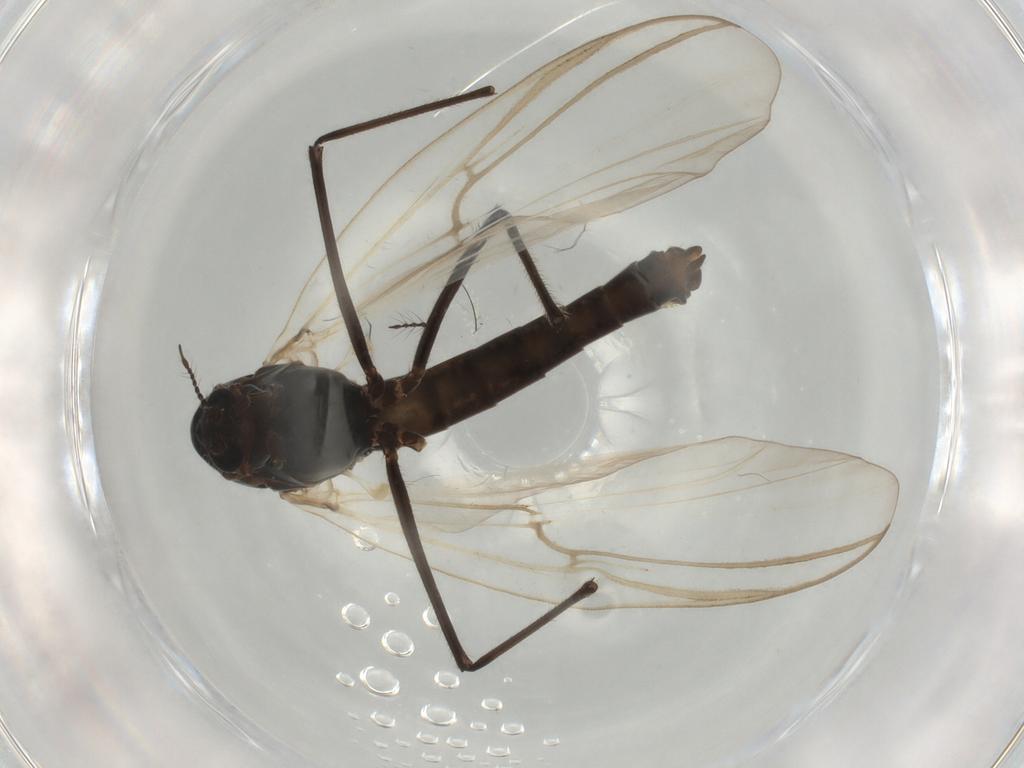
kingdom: Animalia
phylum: Arthropoda
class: Insecta
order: Diptera
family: Chironomidae
